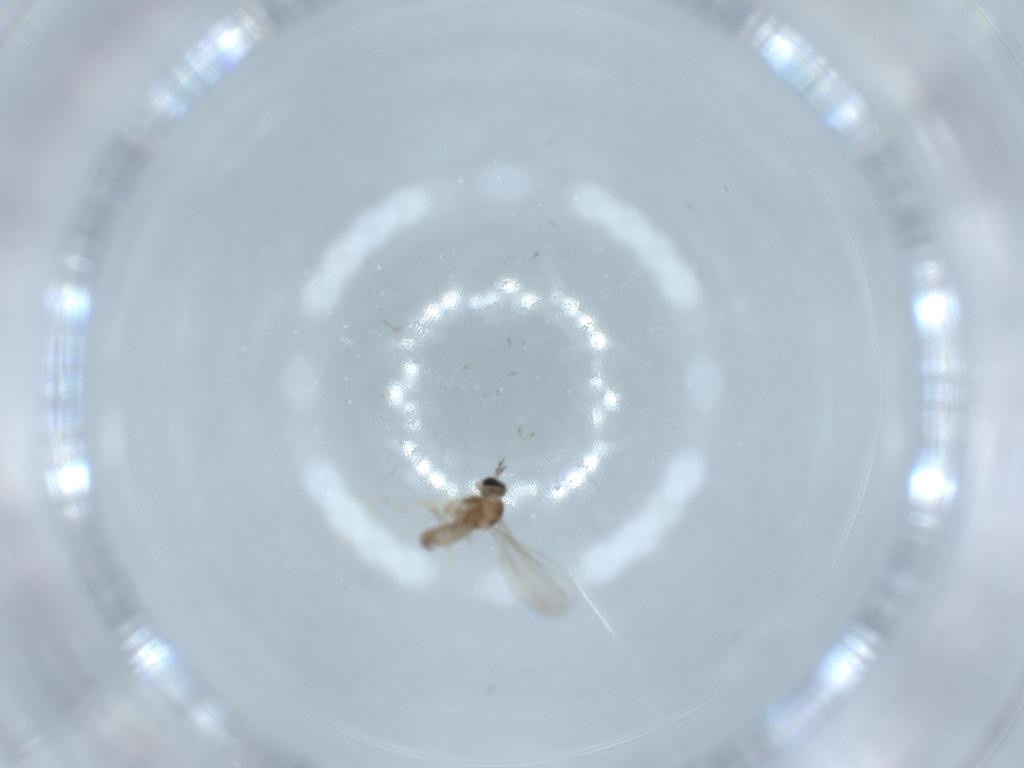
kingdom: Animalia
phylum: Arthropoda
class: Insecta
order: Diptera
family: Cecidomyiidae
